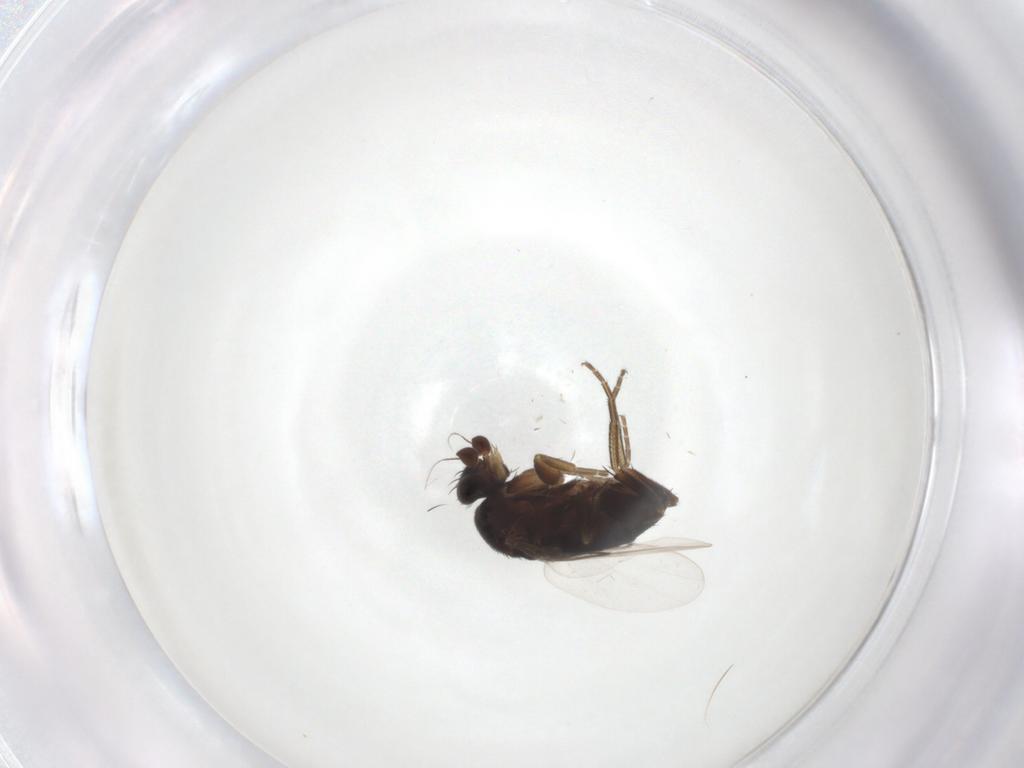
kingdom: Animalia
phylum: Arthropoda
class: Insecta
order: Diptera
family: Phoridae
